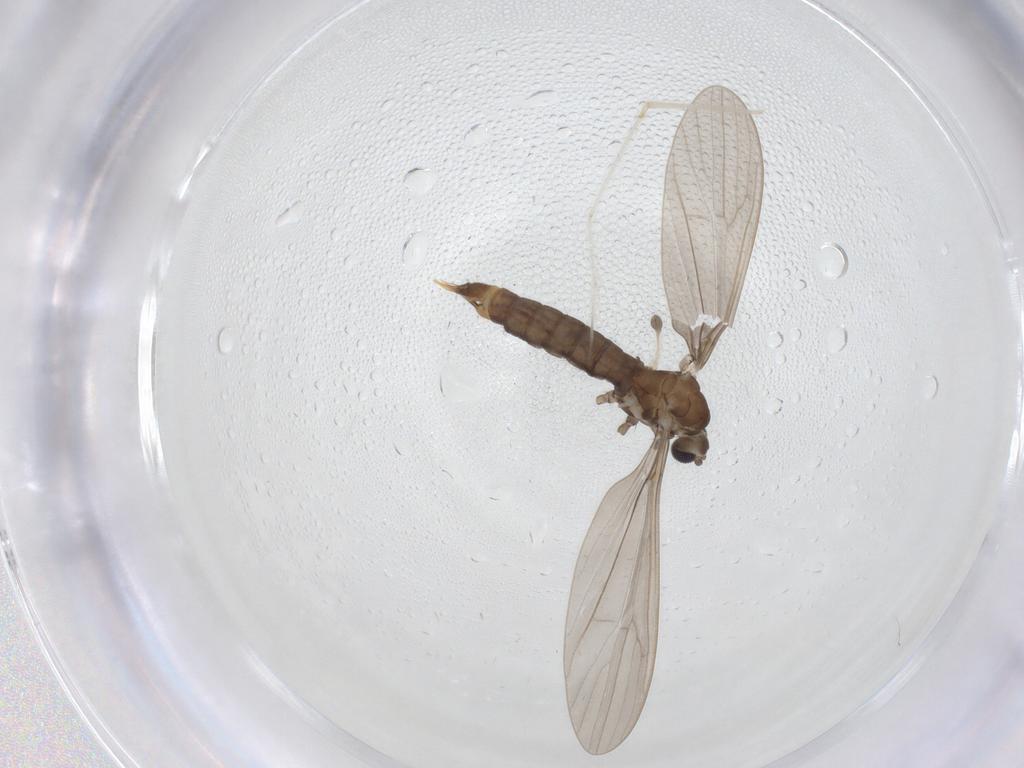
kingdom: Animalia
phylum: Arthropoda
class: Insecta
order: Diptera
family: Limoniidae
